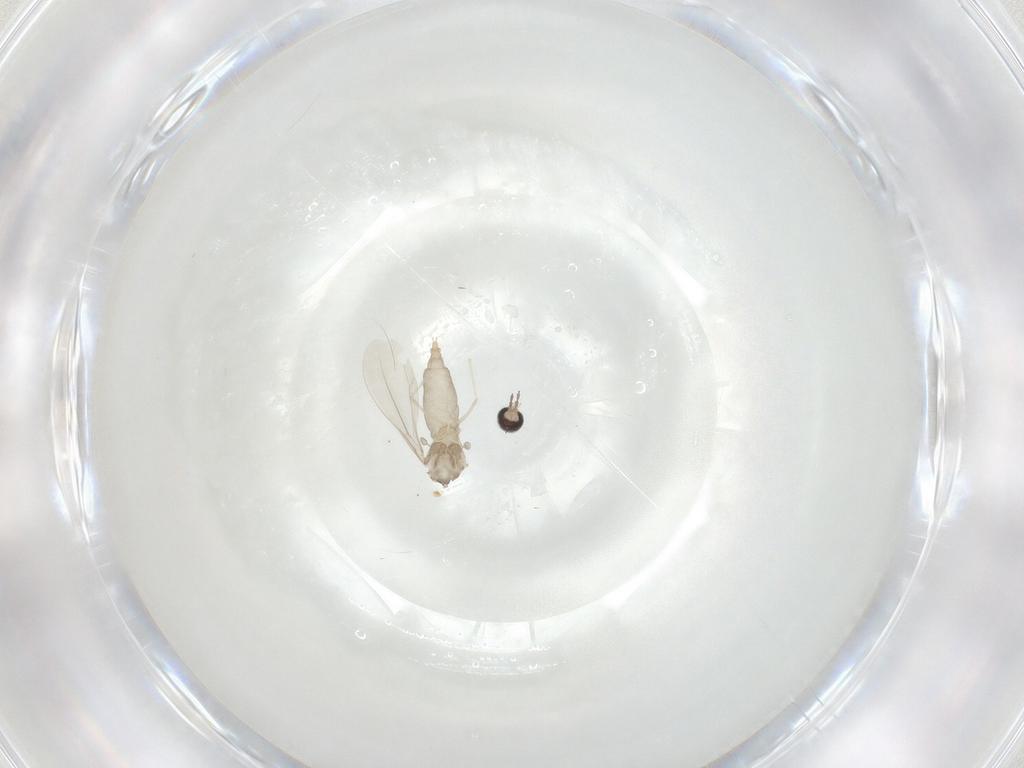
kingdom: Animalia
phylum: Arthropoda
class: Insecta
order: Diptera
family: Cecidomyiidae
